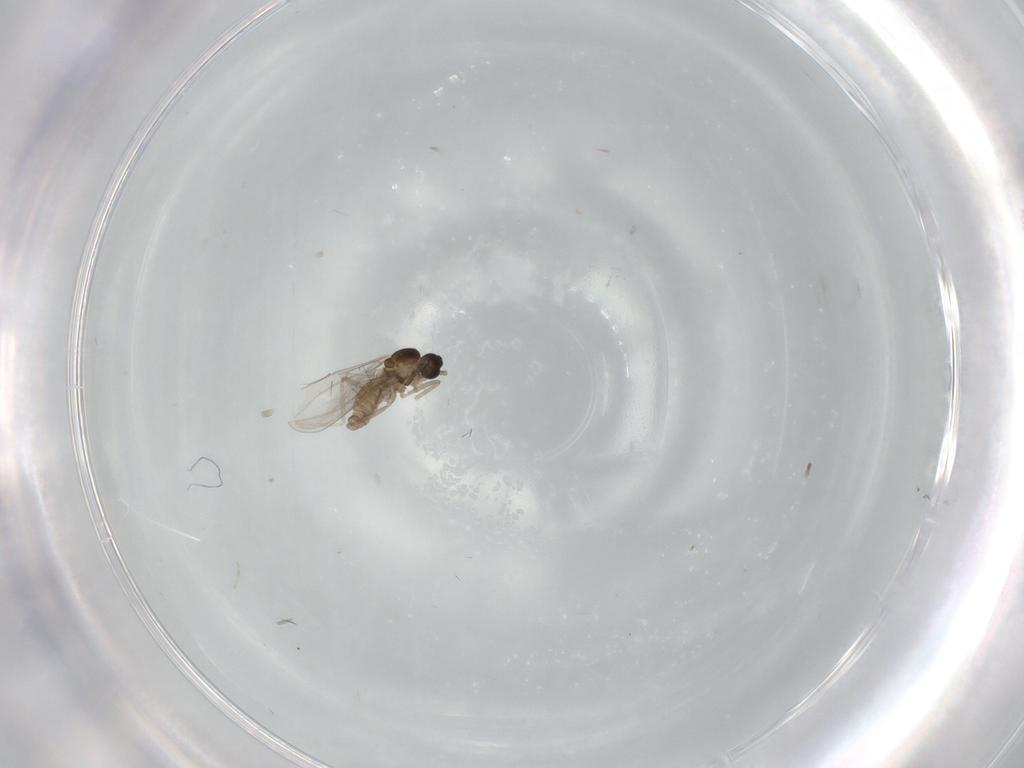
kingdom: Animalia
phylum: Arthropoda
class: Insecta
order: Diptera
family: Cecidomyiidae
